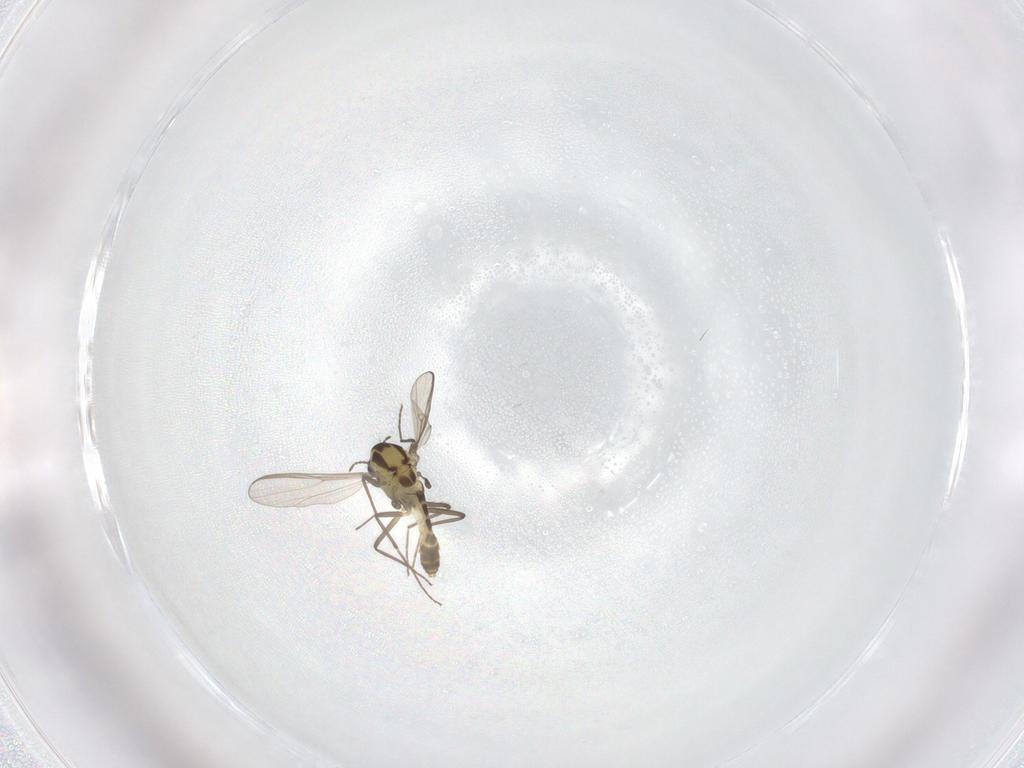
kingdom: Animalia
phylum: Arthropoda
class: Insecta
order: Diptera
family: Chironomidae
